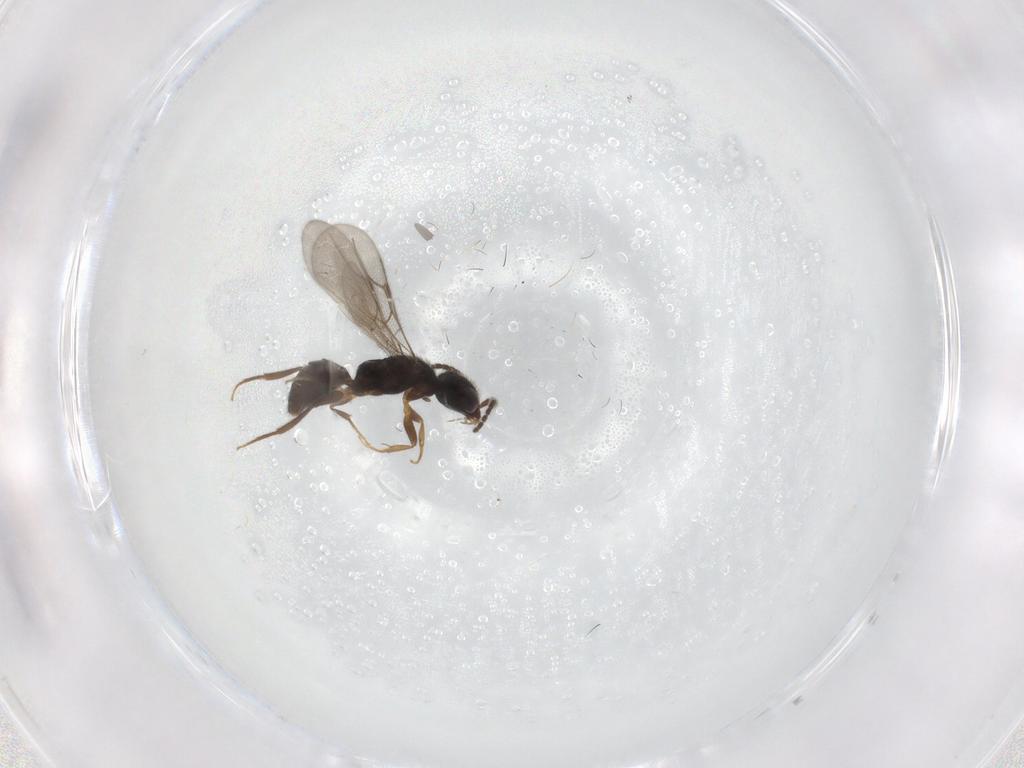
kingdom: Animalia
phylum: Arthropoda
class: Insecta
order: Hymenoptera
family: Bethylidae
